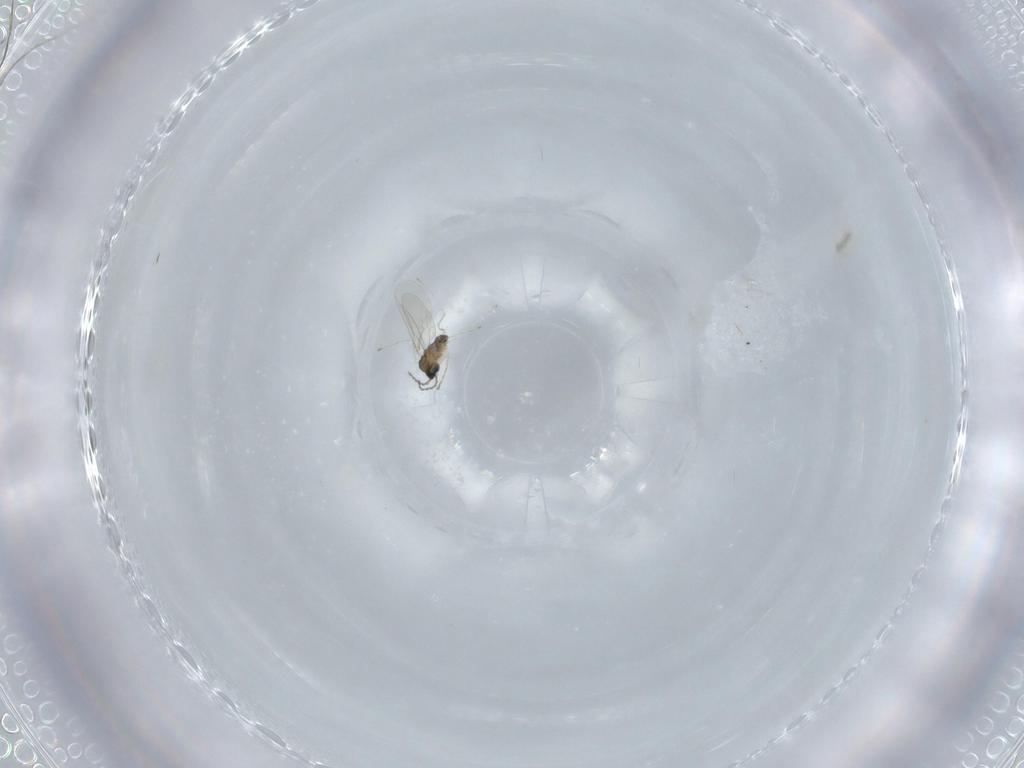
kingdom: Animalia
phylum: Arthropoda
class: Insecta
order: Diptera
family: Cecidomyiidae
